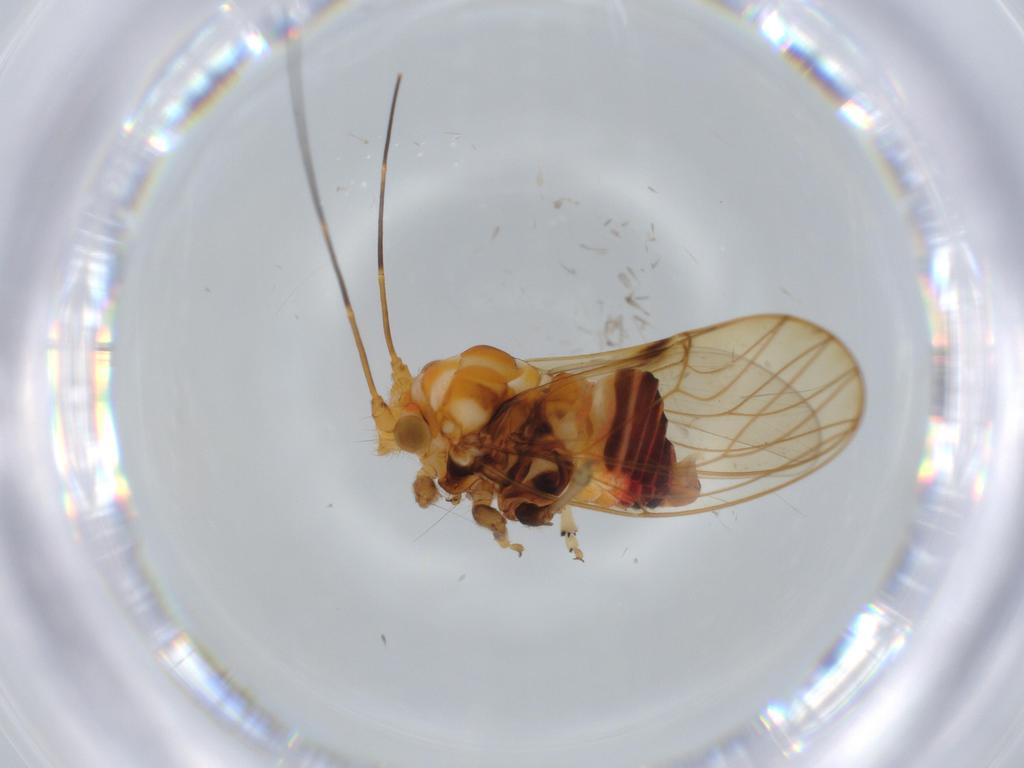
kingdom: Animalia
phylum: Arthropoda
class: Insecta
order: Hemiptera
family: Psyllidae
